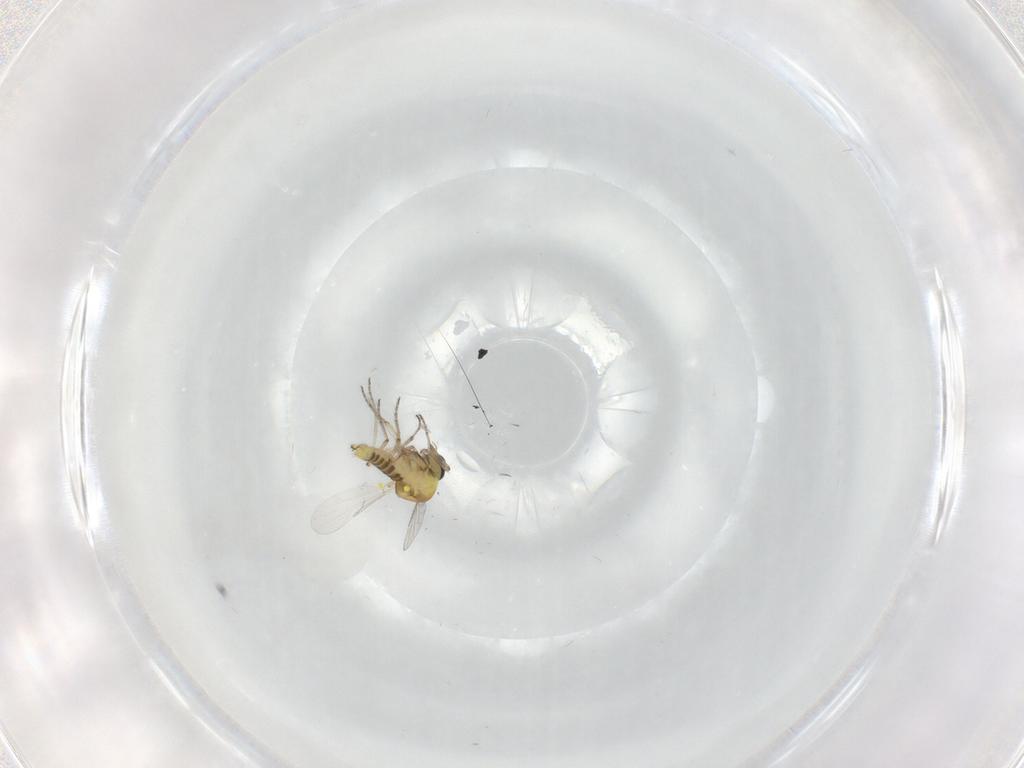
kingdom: Animalia
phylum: Arthropoda
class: Insecta
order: Diptera
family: Ceratopogonidae
